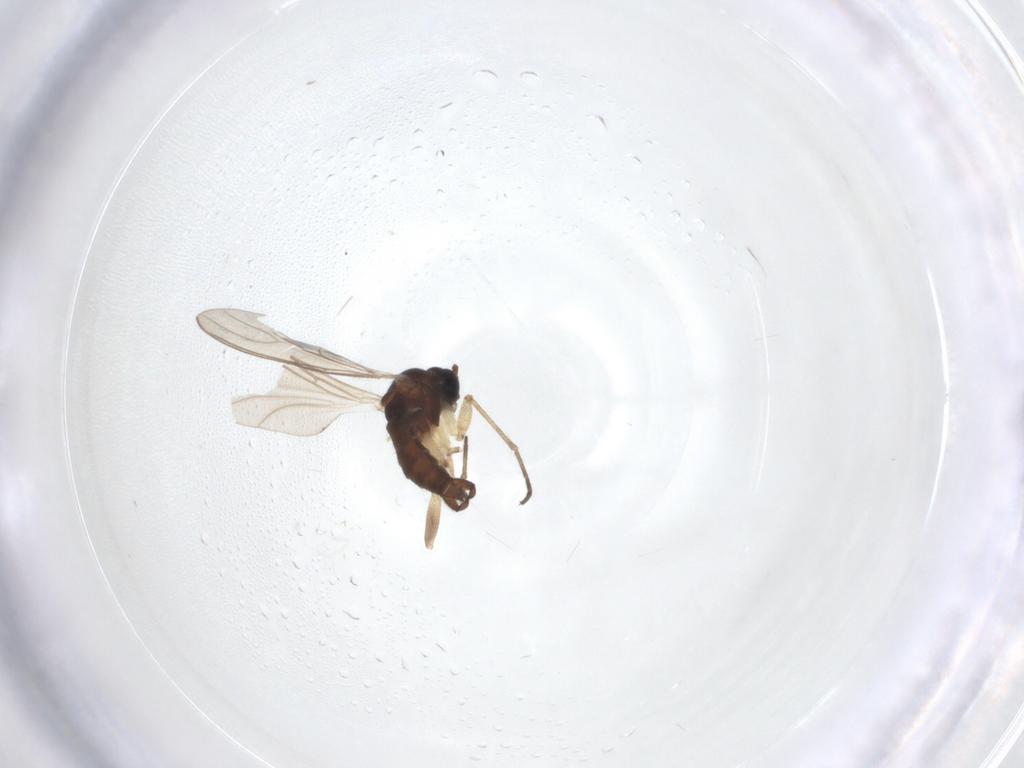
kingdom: Animalia
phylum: Arthropoda
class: Insecta
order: Diptera
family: Sciaridae
